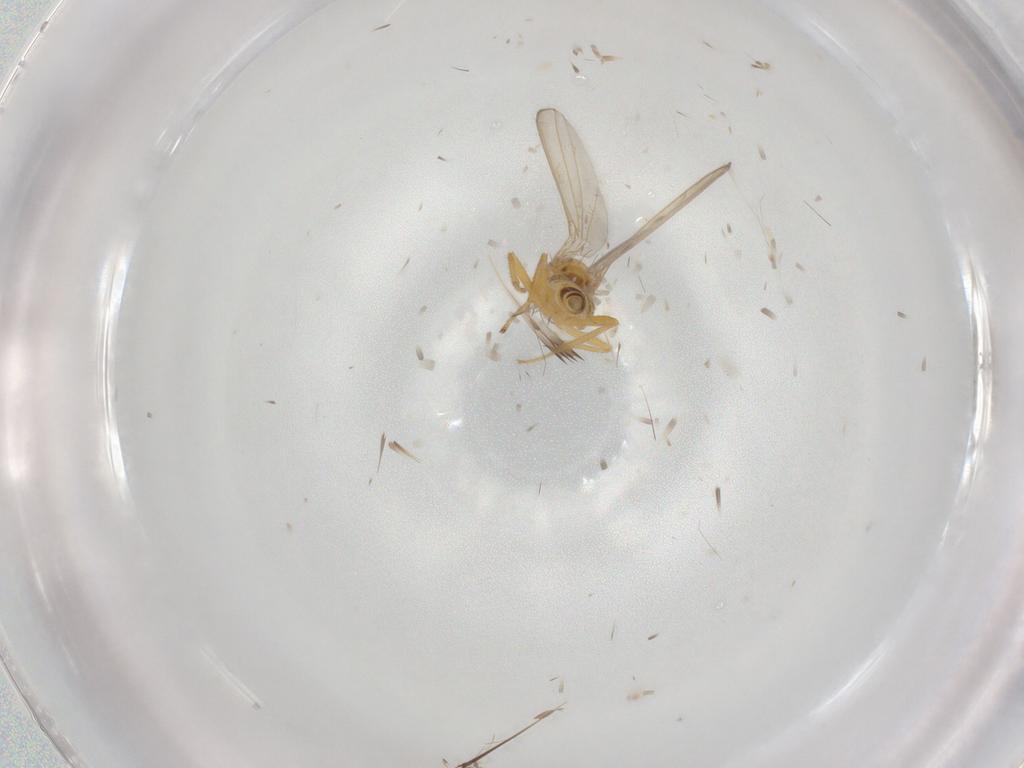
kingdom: Animalia
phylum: Arthropoda
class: Insecta
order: Diptera
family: Periscelididae
